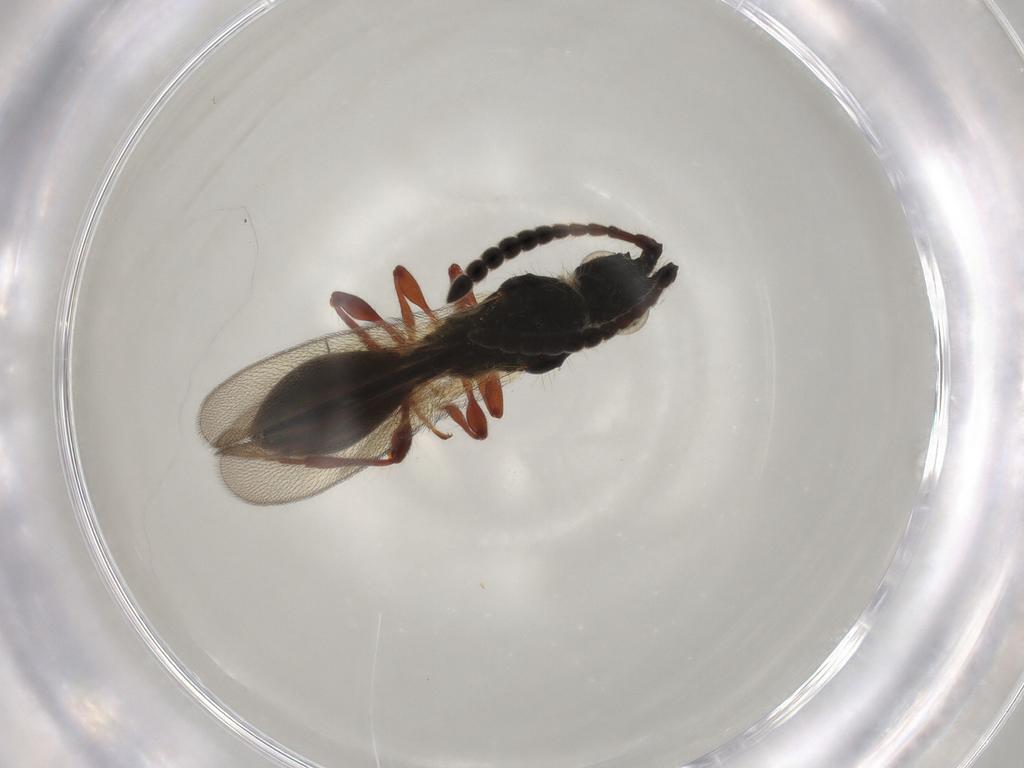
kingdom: Animalia
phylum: Arthropoda
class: Insecta
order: Hymenoptera
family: Diapriidae
